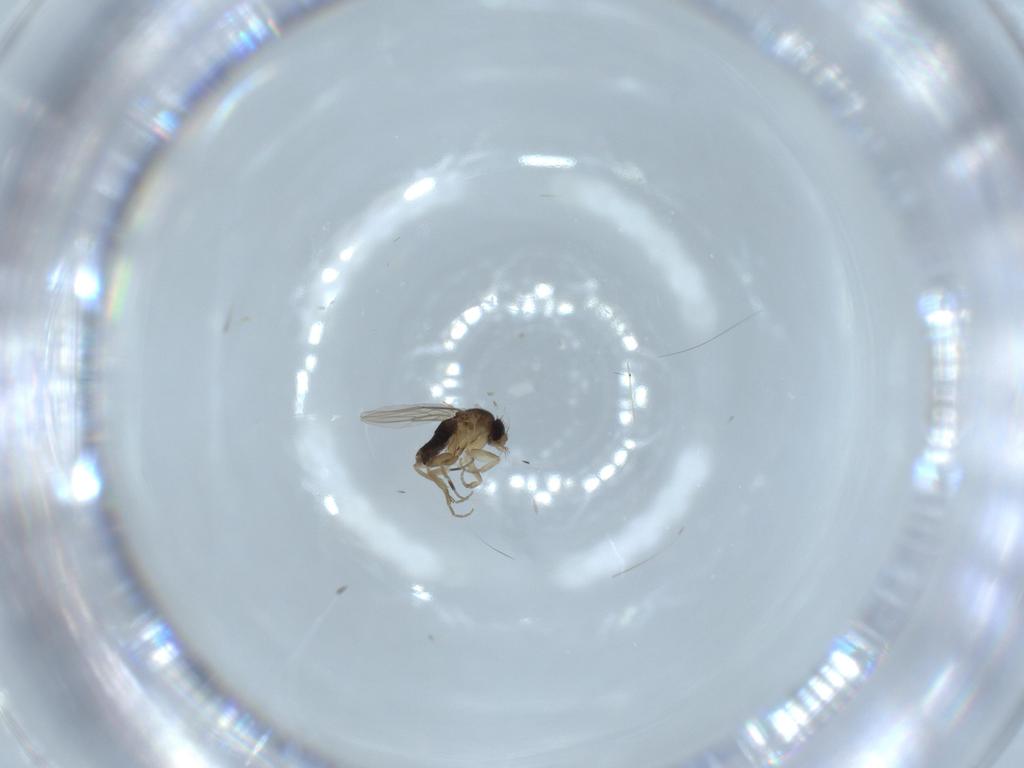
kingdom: Animalia
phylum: Arthropoda
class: Insecta
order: Diptera
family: Phoridae
